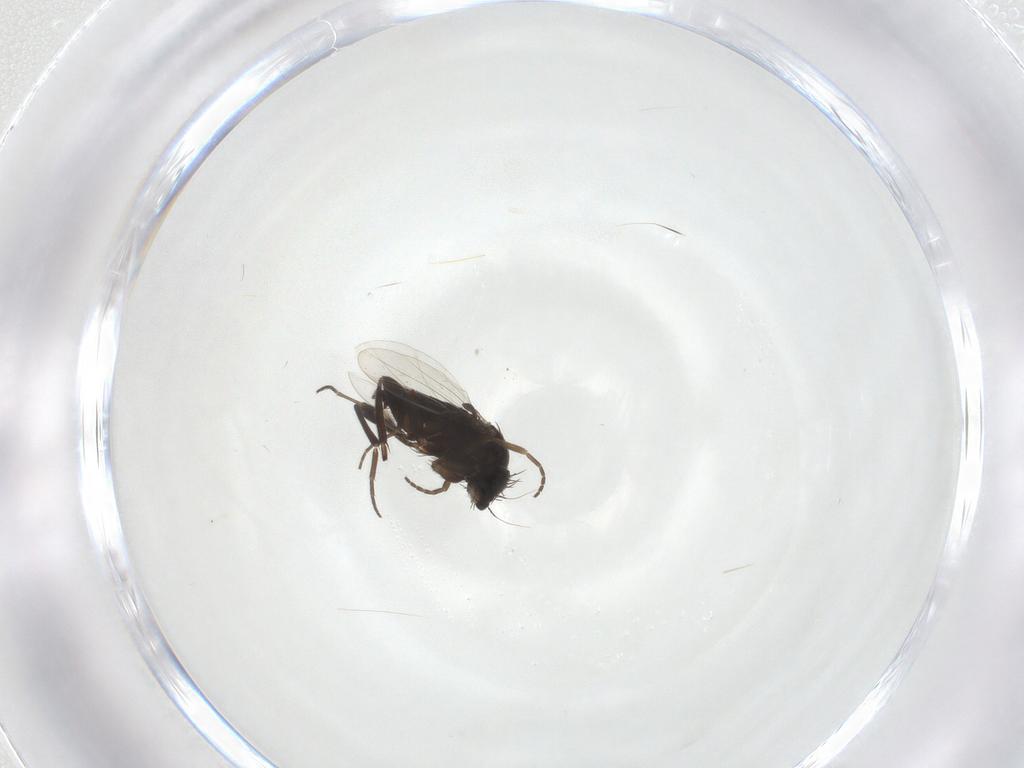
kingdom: Animalia
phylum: Arthropoda
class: Insecta
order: Diptera
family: Phoridae
